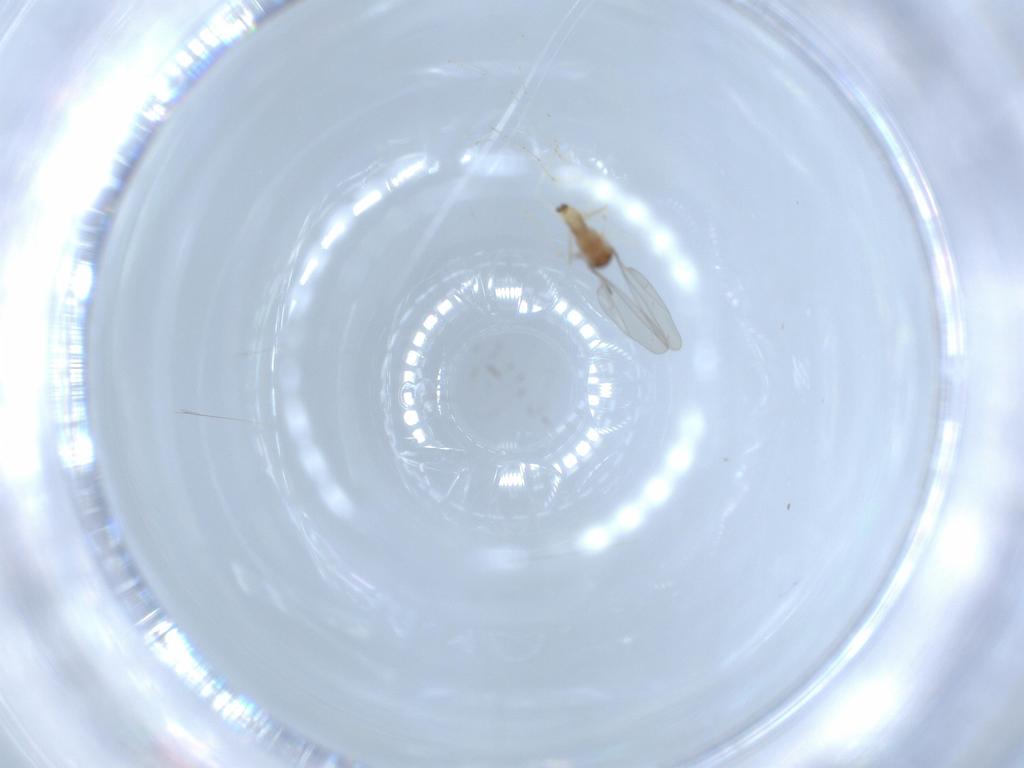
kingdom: Animalia
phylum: Arthropoda
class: Insecta
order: Diptera
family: Cecidomyiidae
